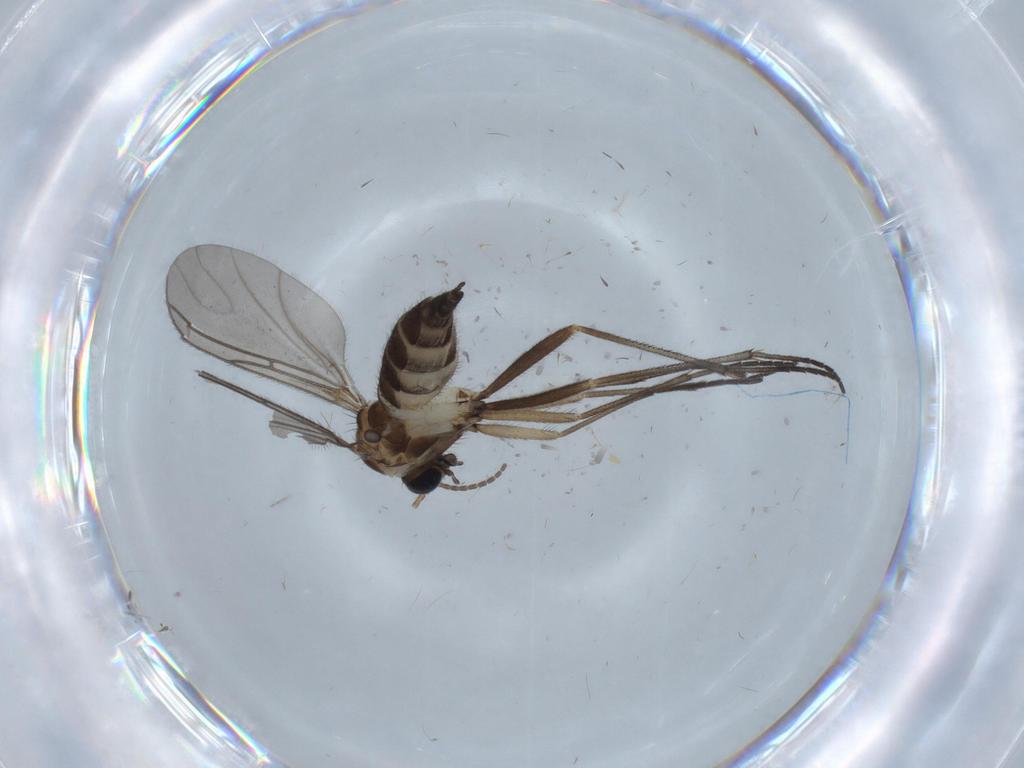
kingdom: Animalia
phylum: Arthropoda
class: Insecta
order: Diptera
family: Sciaridae
